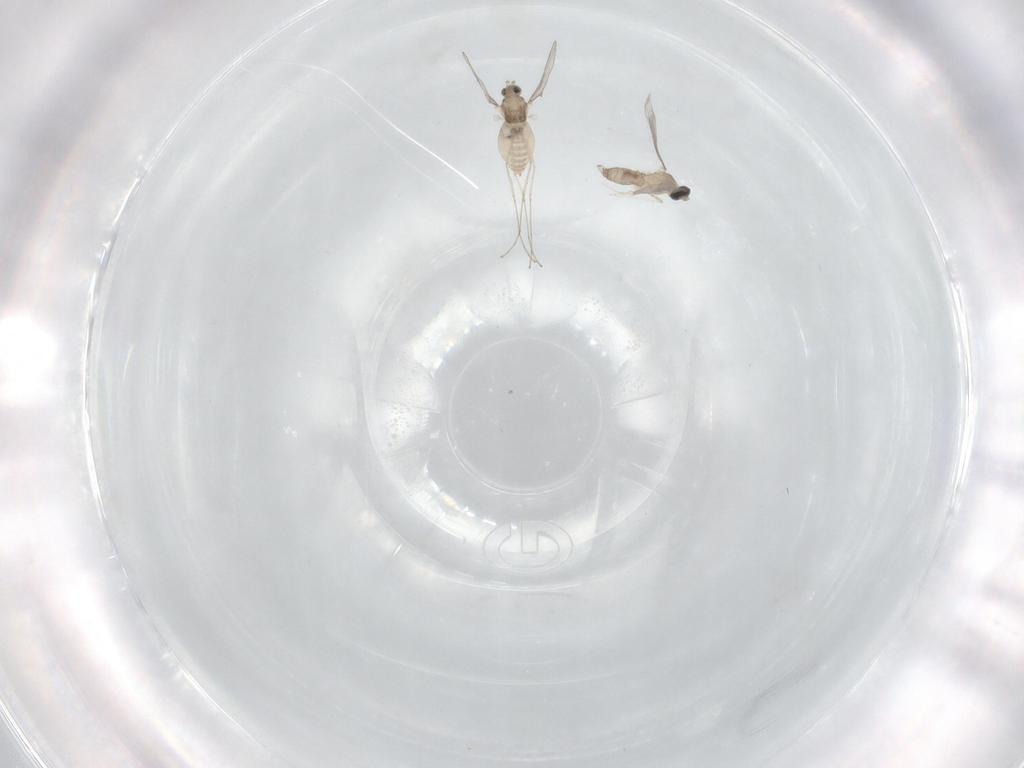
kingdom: Animalia
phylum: Arthropoda
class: Insecta
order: Diptera
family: Cecidomyiidae
